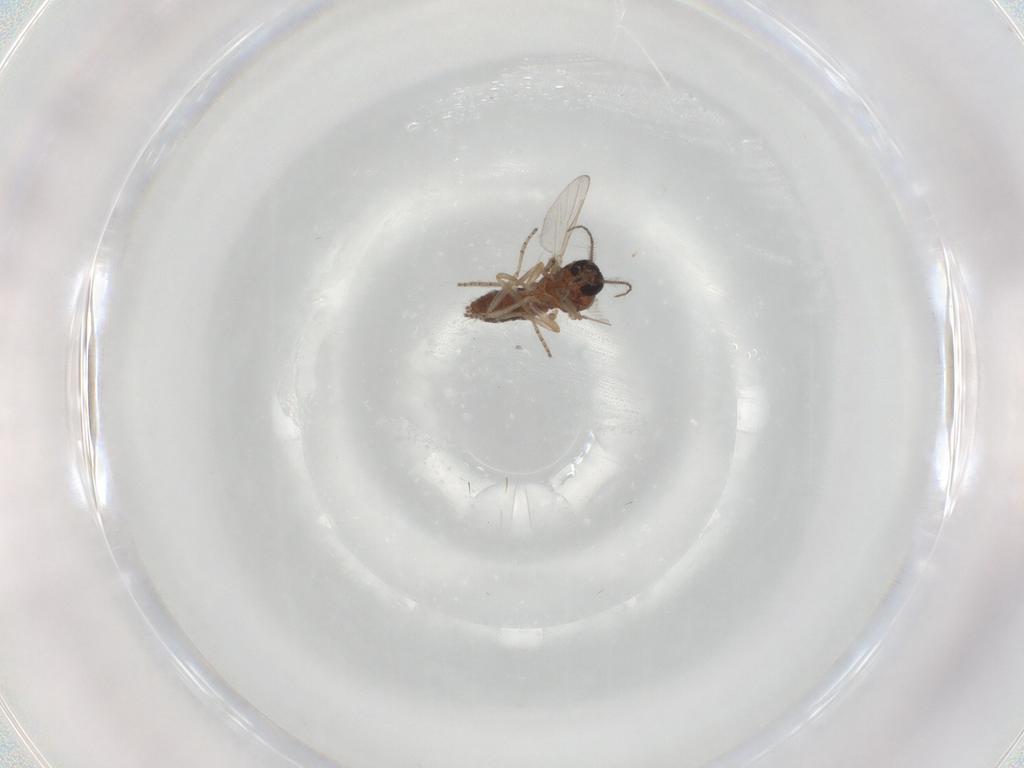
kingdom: Animalia
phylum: Arthropoda
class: Insecta
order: Diptera
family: Ceratopogonidae
